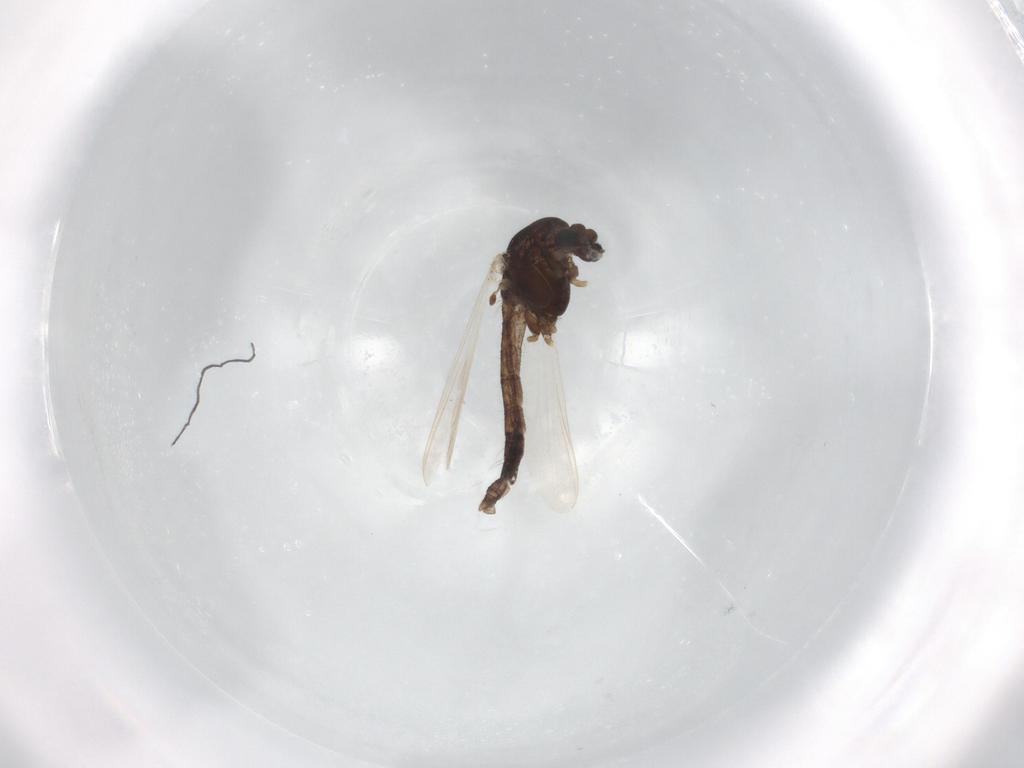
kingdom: Animalia
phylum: Arthropoda
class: Insecta
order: Diptera
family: Chironomidae
